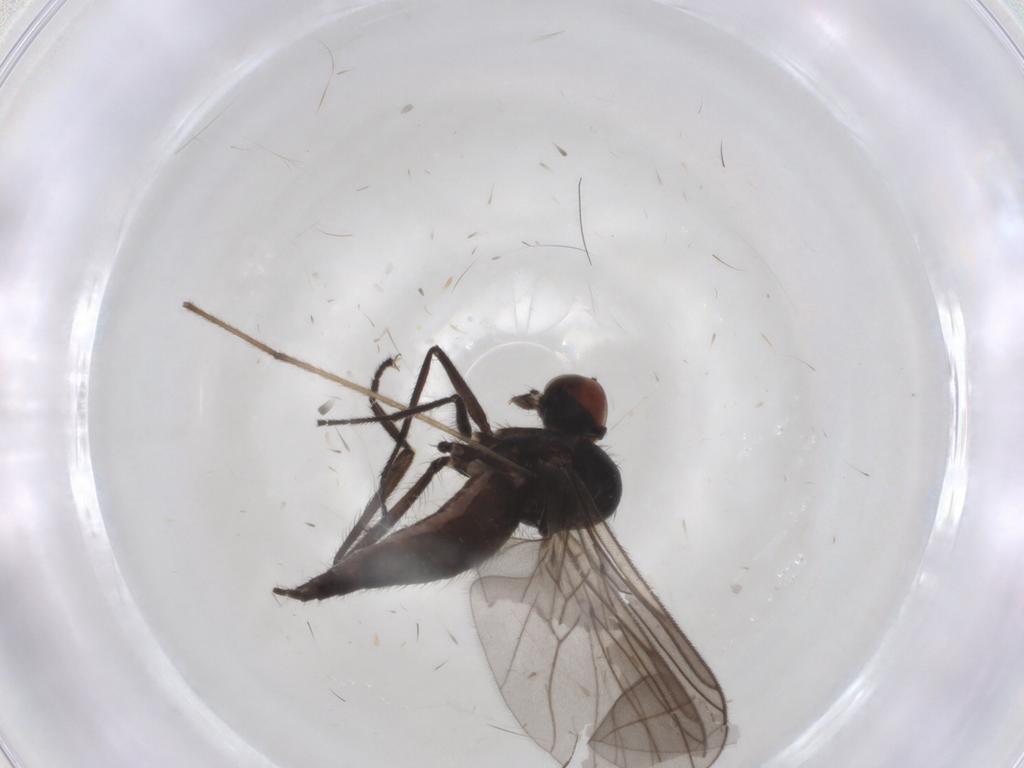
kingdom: Animalia
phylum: Arthropoda
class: Insecta
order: Diptera
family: Hybotidae
